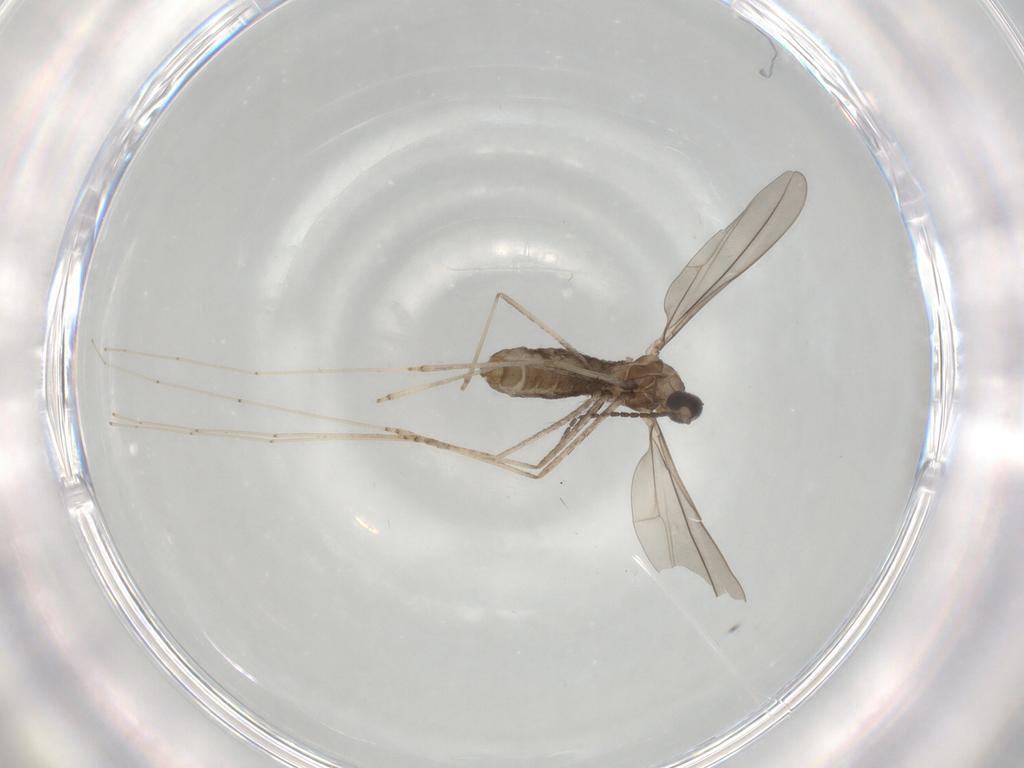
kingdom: Animalia
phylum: Arthropoda
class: Insecta
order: Diptera
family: Cecidomyiidae
